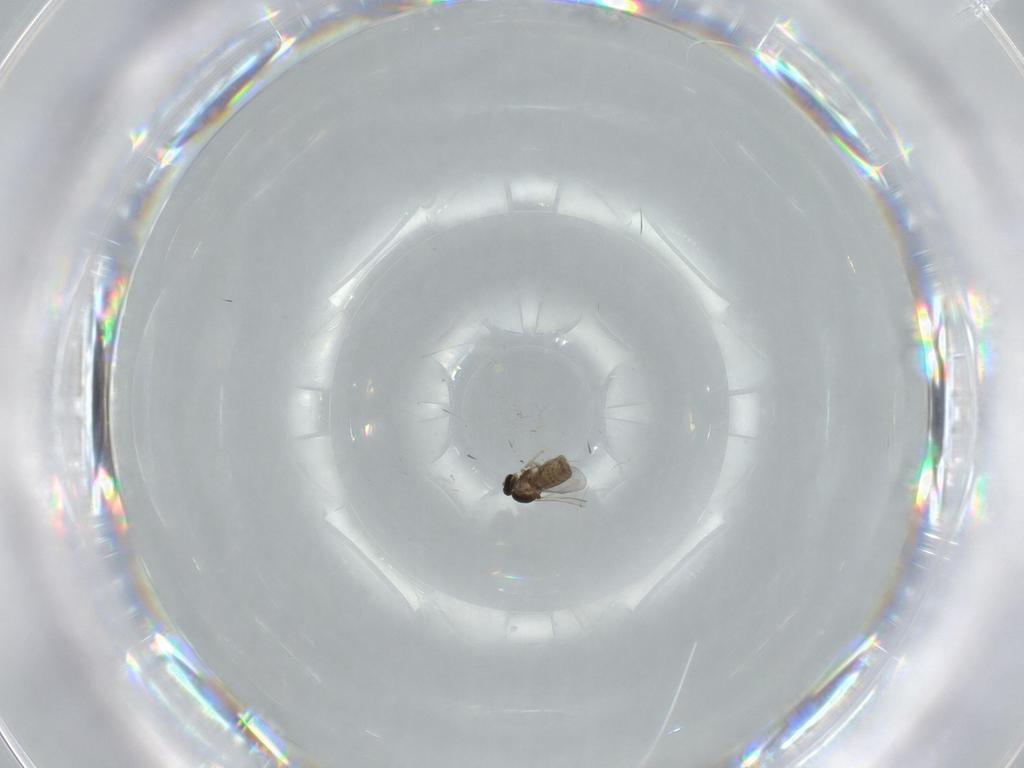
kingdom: Animalia
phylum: Arthropoda
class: Insecta
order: Diptera
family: Cecidomyiidae
